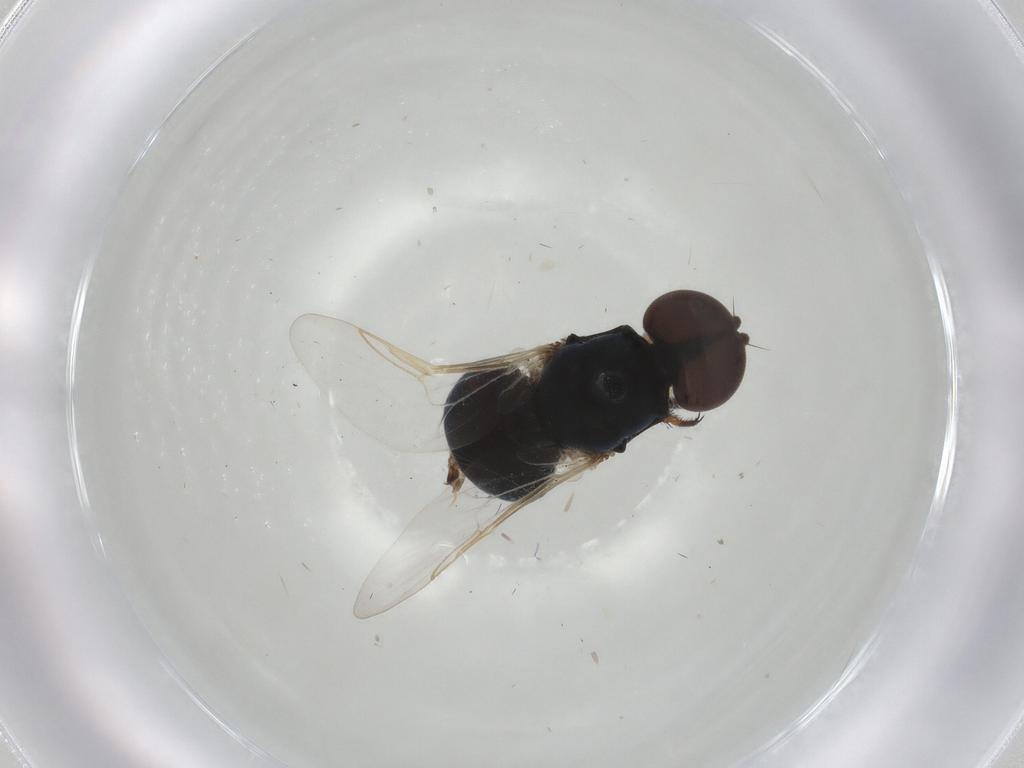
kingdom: Animalia
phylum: Arthropoda
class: Insecta
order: Diptera
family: Stratiomyidae
